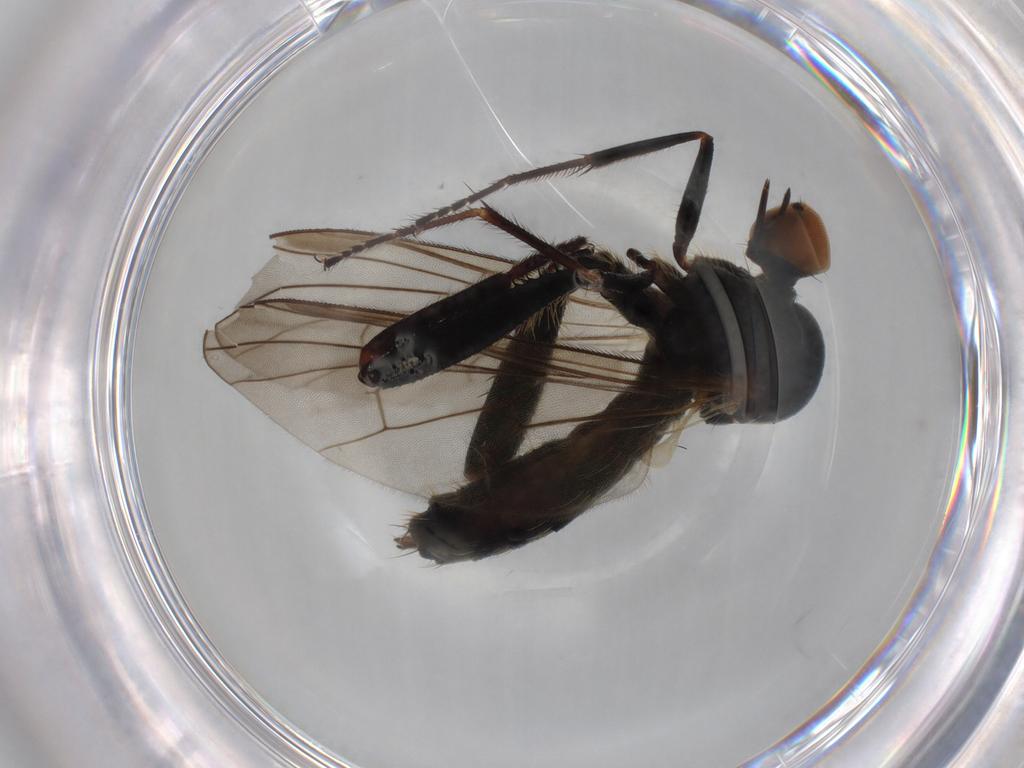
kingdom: Animalia
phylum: Arthropoda
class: Insecta
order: Diptera
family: Hybotidae
